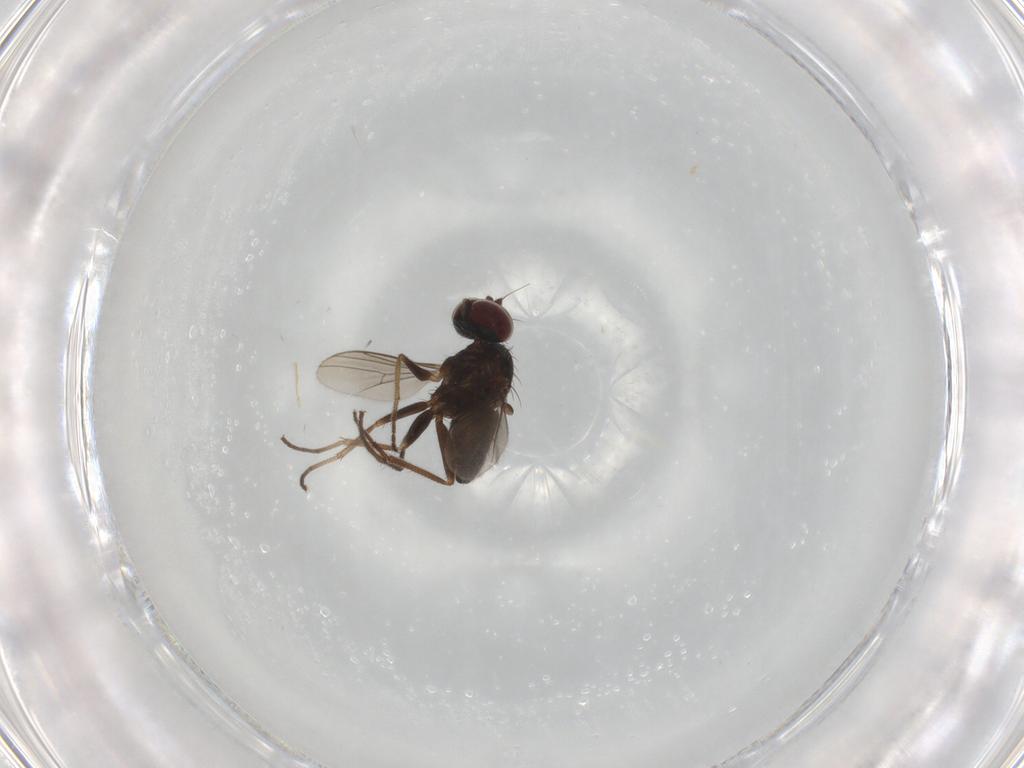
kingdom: Animalia
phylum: Arthropoda
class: Insecta
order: Diptera
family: Dolichopodidae
